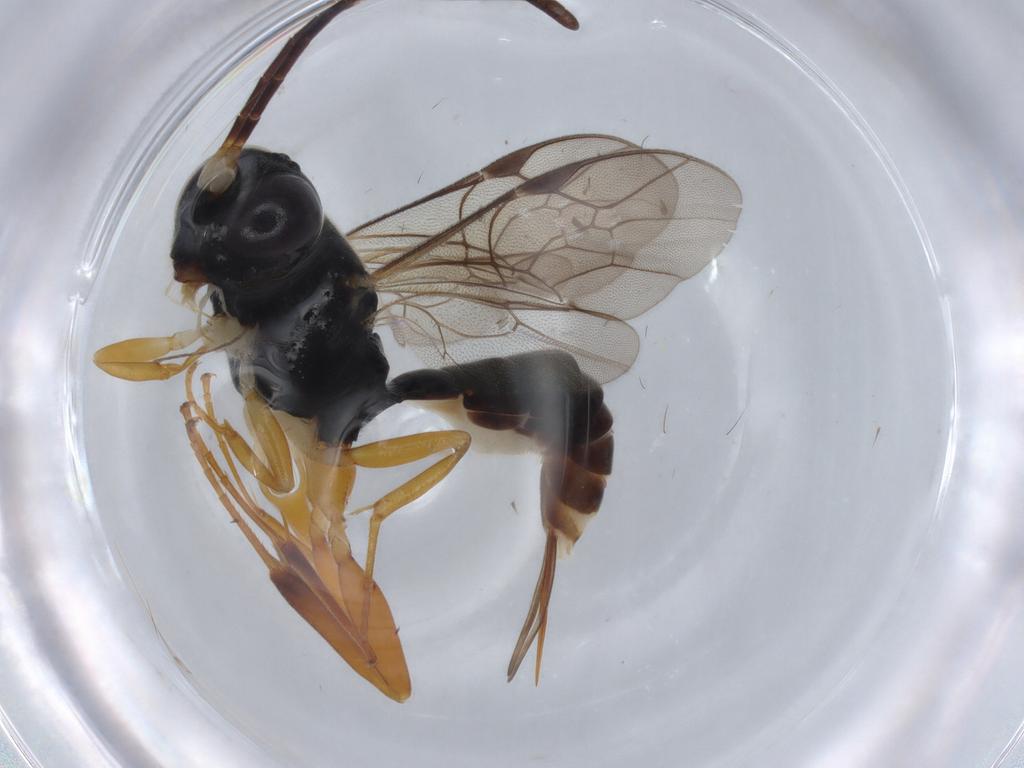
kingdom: Animalia
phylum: Arthropoda
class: Insecta
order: Hymenoptera
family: Ichneumonidae
